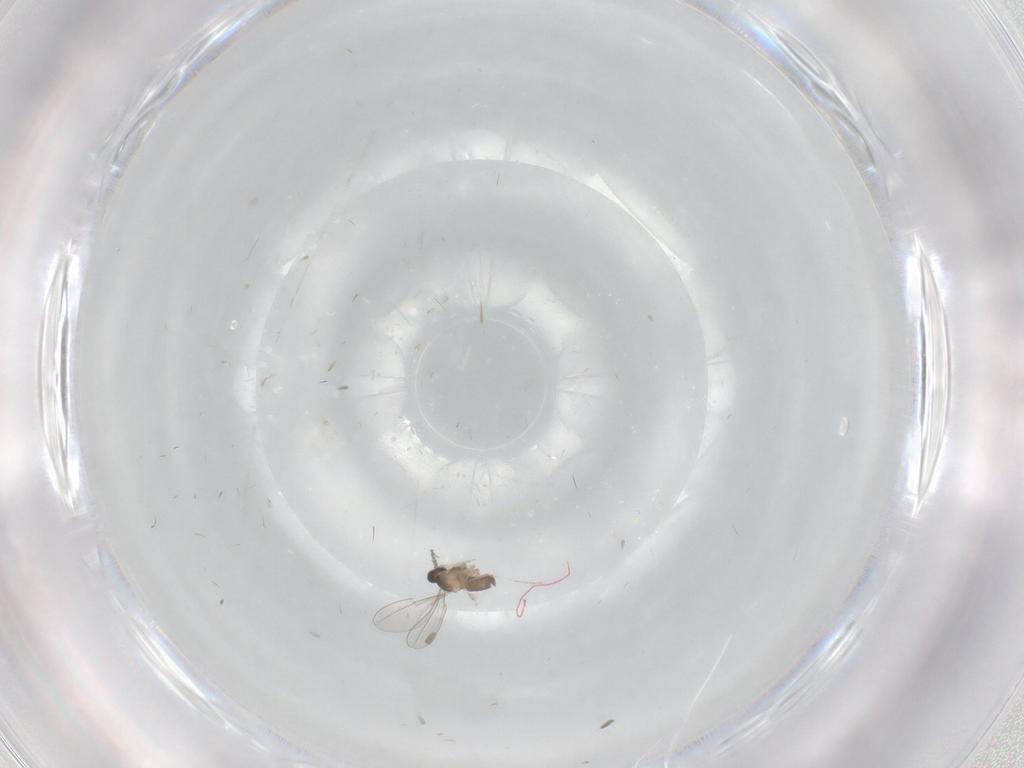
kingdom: Animalia
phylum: Arthropoda
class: Insecta
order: Diptera
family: Cecidomyiidae
